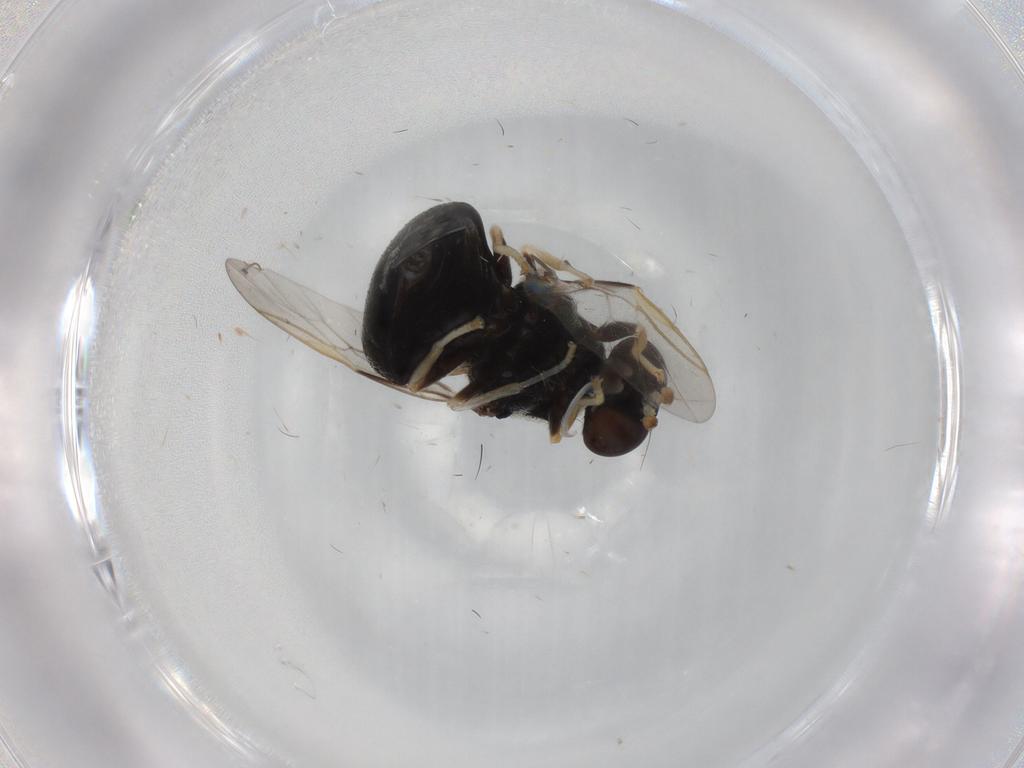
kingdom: Animalia
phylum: Arthropoda
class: Insecta
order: Diptera
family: Stratiomyidae
